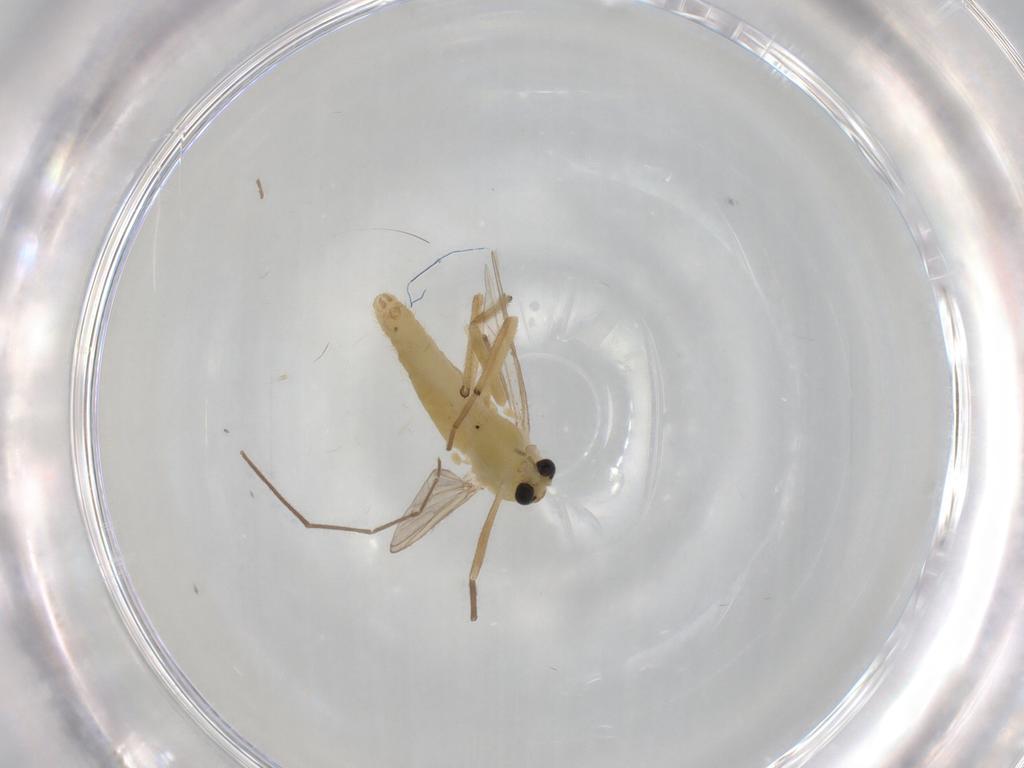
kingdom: Animalia
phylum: Arthropoda
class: Insecta
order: Diptera
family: Chironomidae
